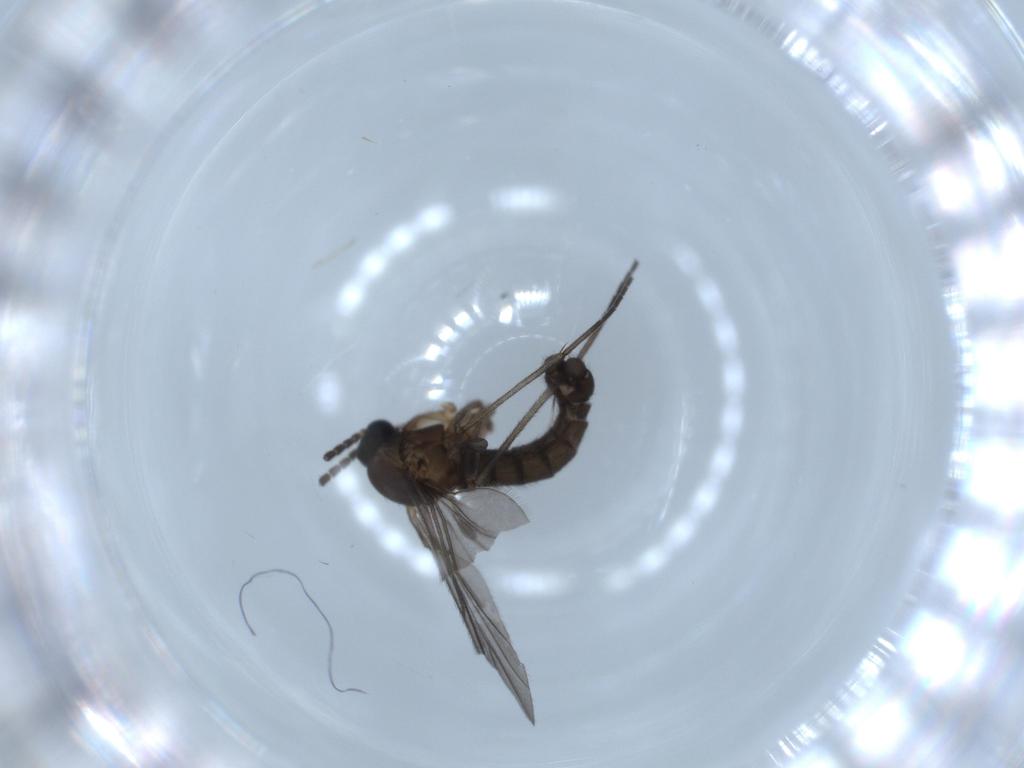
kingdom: Animalia
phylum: Arthropoda
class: Insecta
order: Diptera
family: Sciaridae
